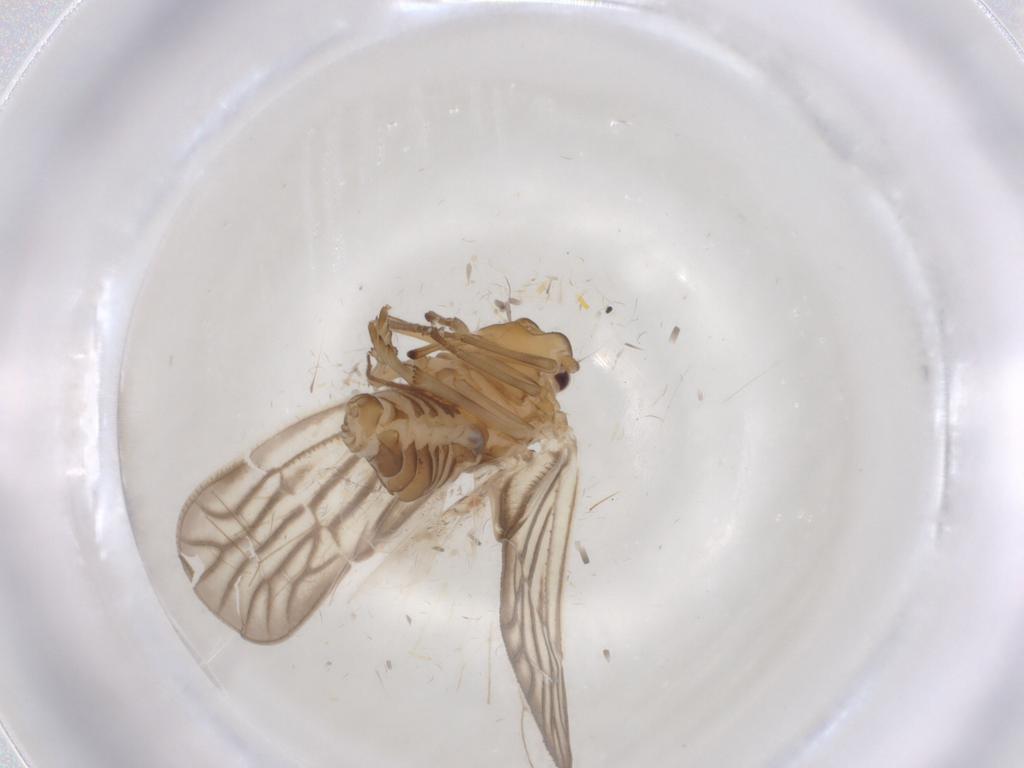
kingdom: Animalia
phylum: Arthropoda
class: Insecta
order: Hemiptera
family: Meenoplidae
